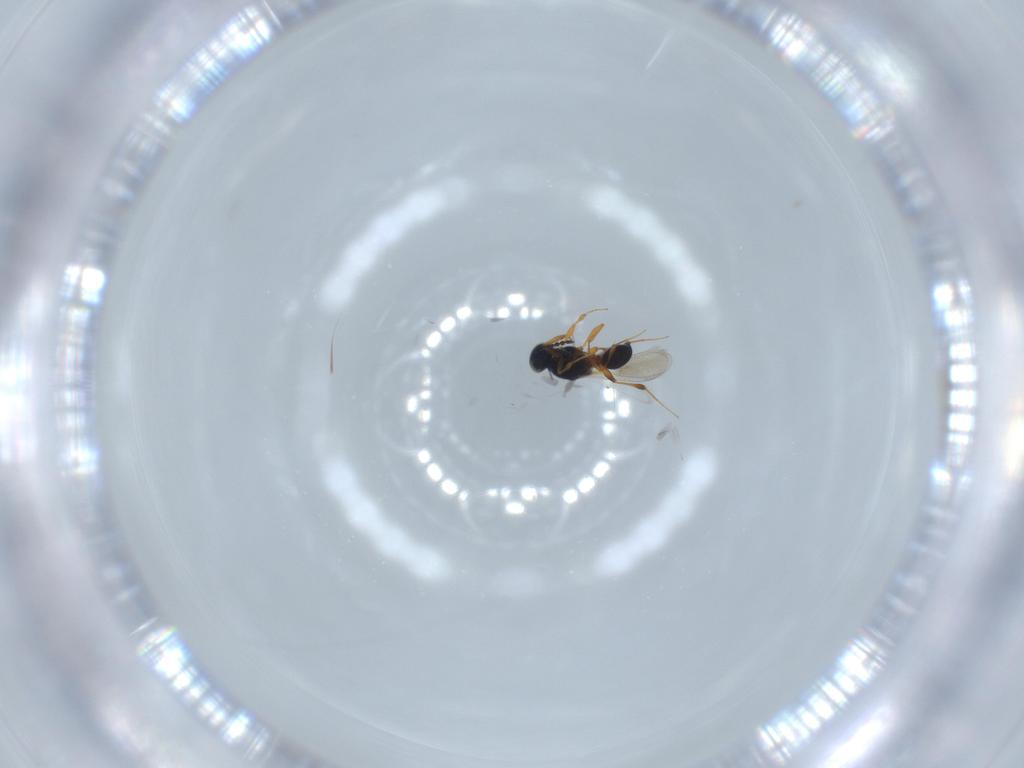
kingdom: Animalia
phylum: Arthropoda
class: Insecta
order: Hymenoptera
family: Platygastridae
